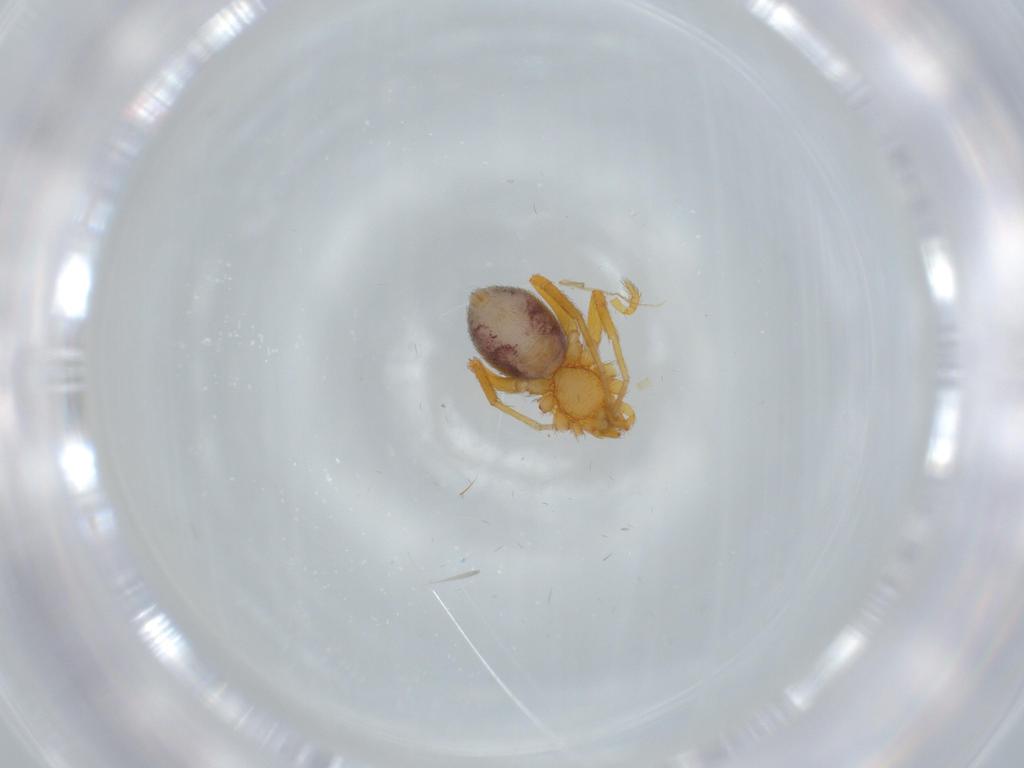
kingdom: Animalia
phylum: Arthropoda
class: Arachnida
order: Araneae
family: Oonopidae
